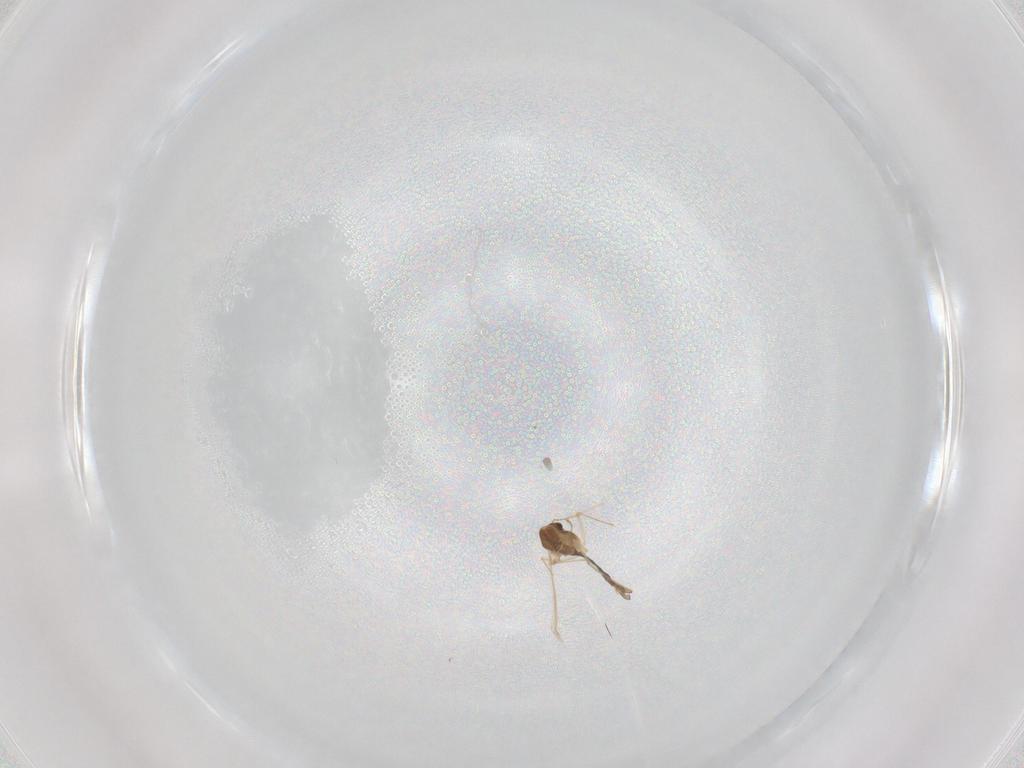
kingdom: Animalia
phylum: Arthropoda
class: Insecta
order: Diptera
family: Chironomidae
